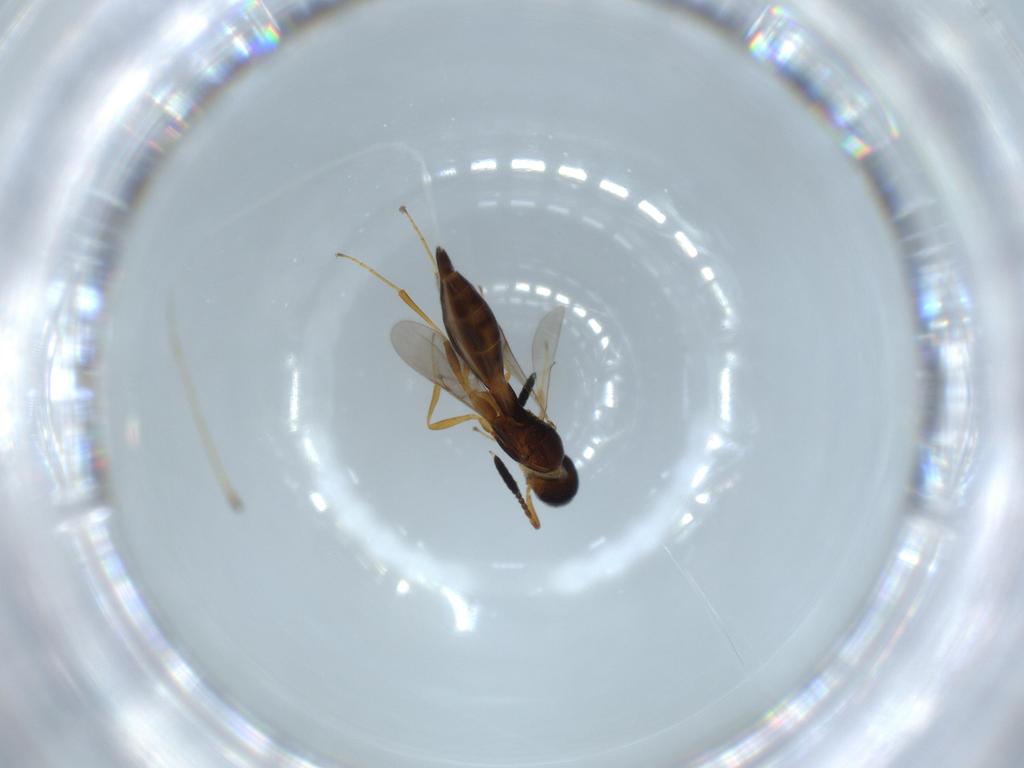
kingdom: Animalia
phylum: Arthropoda
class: Insecta
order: Hymenoptera
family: Scelionidae
